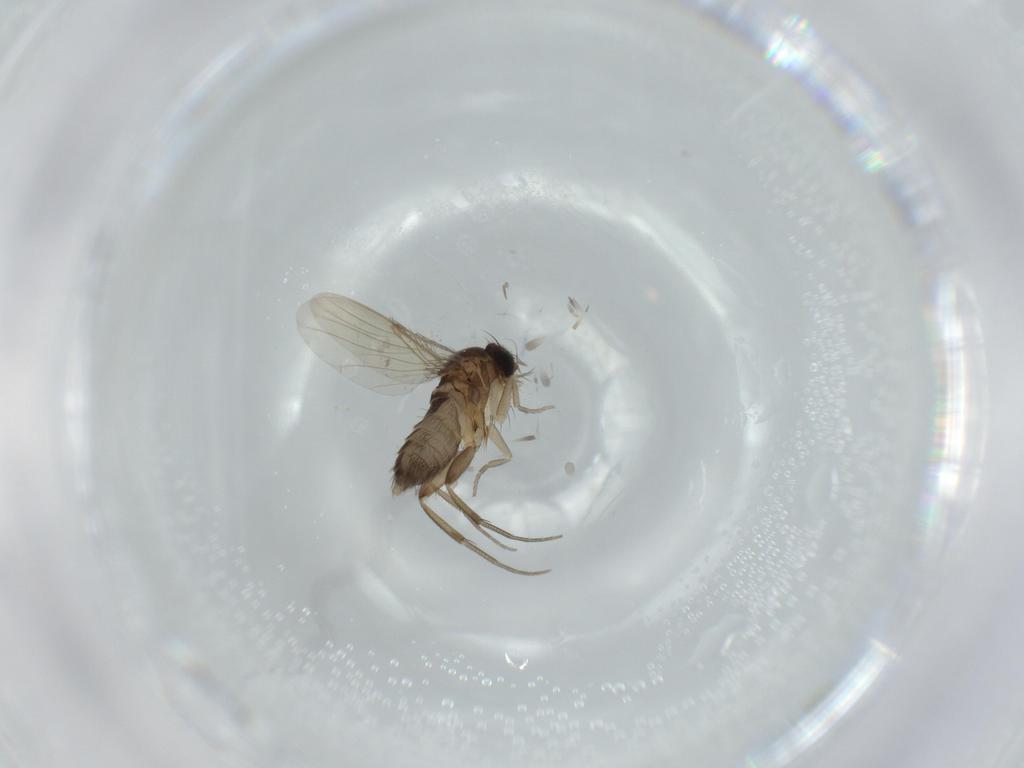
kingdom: Animalia
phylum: Arthropoda
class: Insecta
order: Diptera
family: Phoridae
